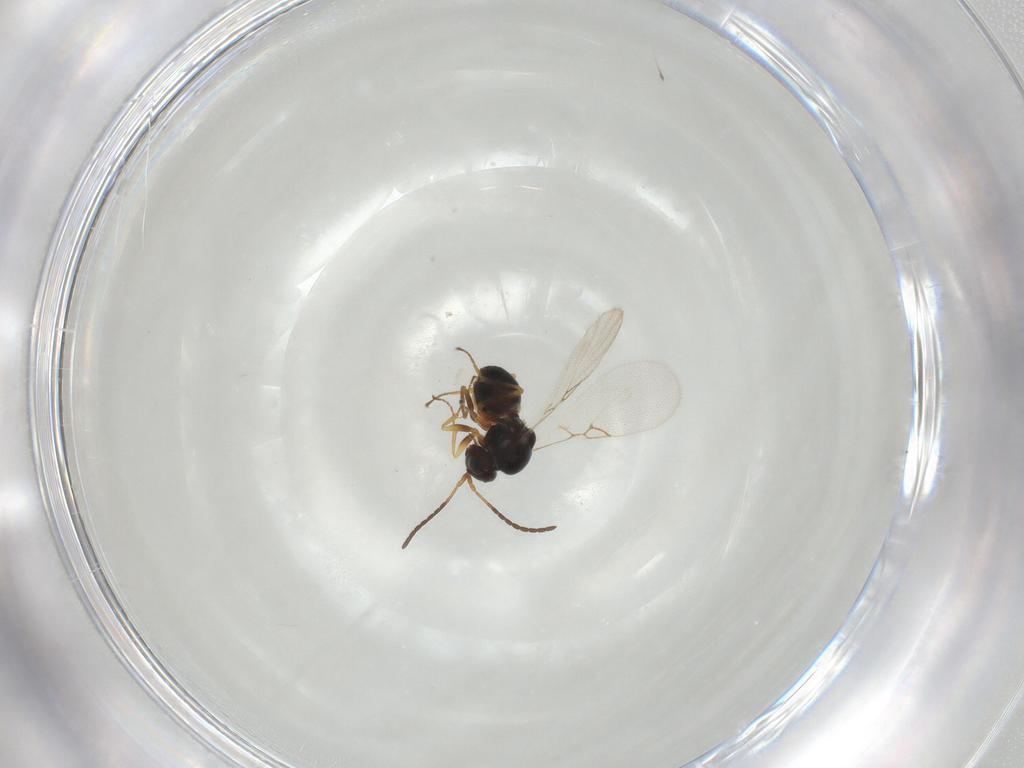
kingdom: Animalia
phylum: Arthropoda
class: Insecta
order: Hymenoptera
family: Figitidae
